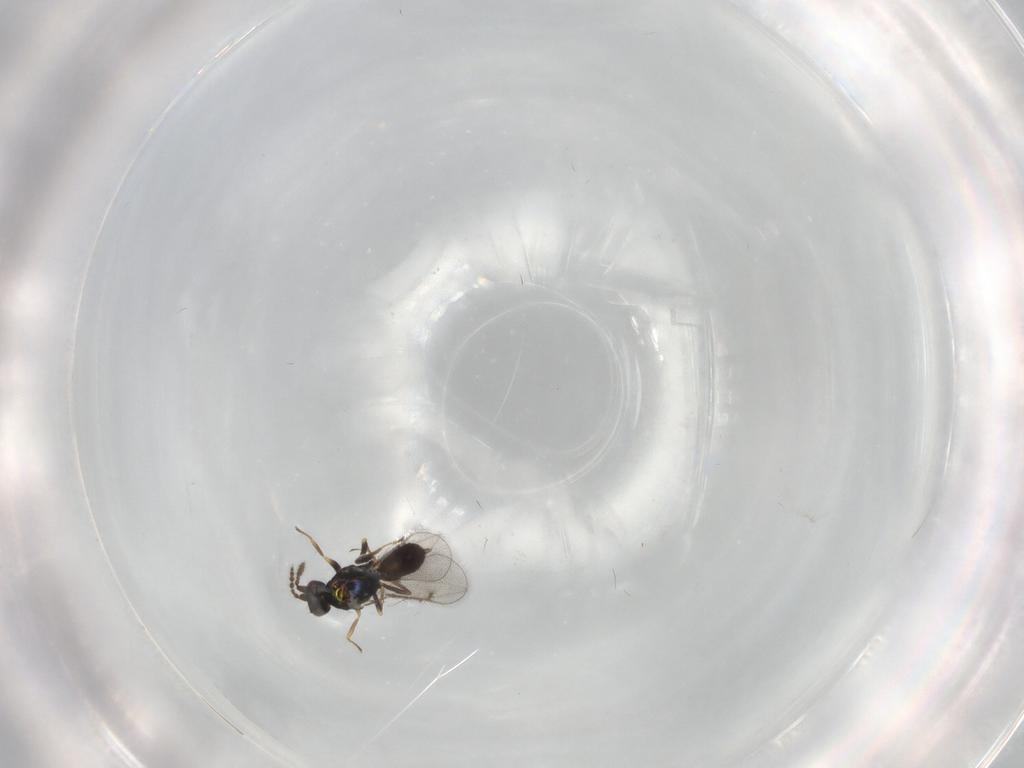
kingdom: Animalia
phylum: Arthropoda
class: Insecta
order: Hymenoptera
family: Eulophidae
